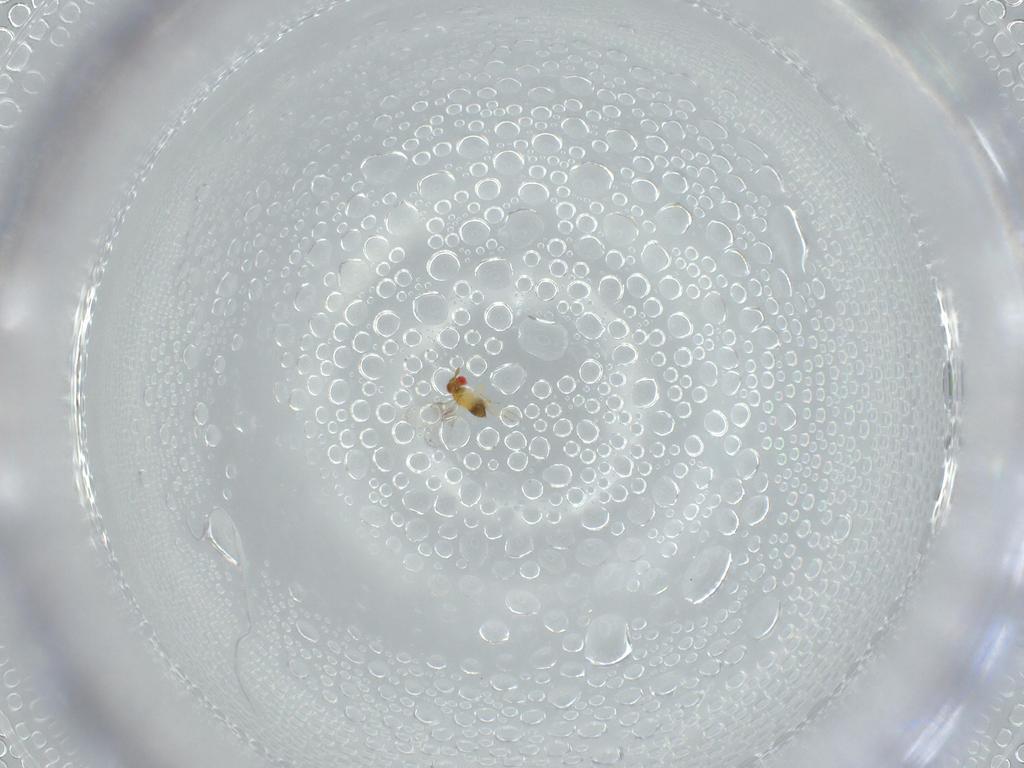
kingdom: Animalia
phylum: Arthropoda
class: Insecta
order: Hymenoptera
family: Trichogrammatidae
